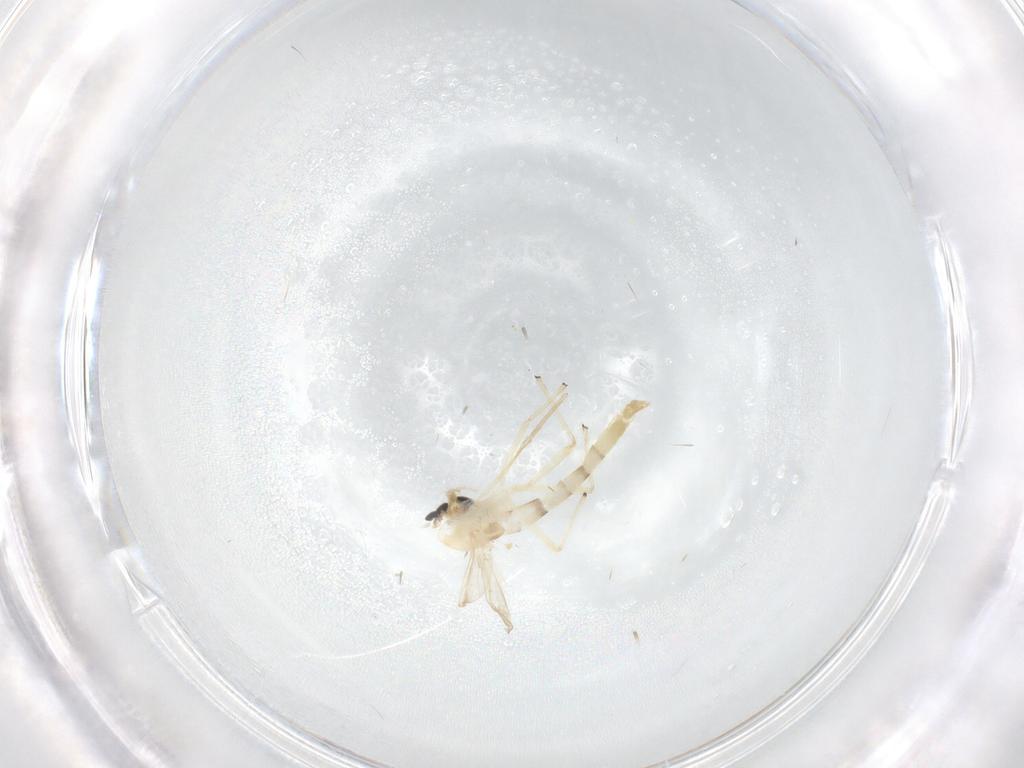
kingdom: Animalia
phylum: Arthropoda
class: Insecta
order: Diptera
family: Chironomidae
